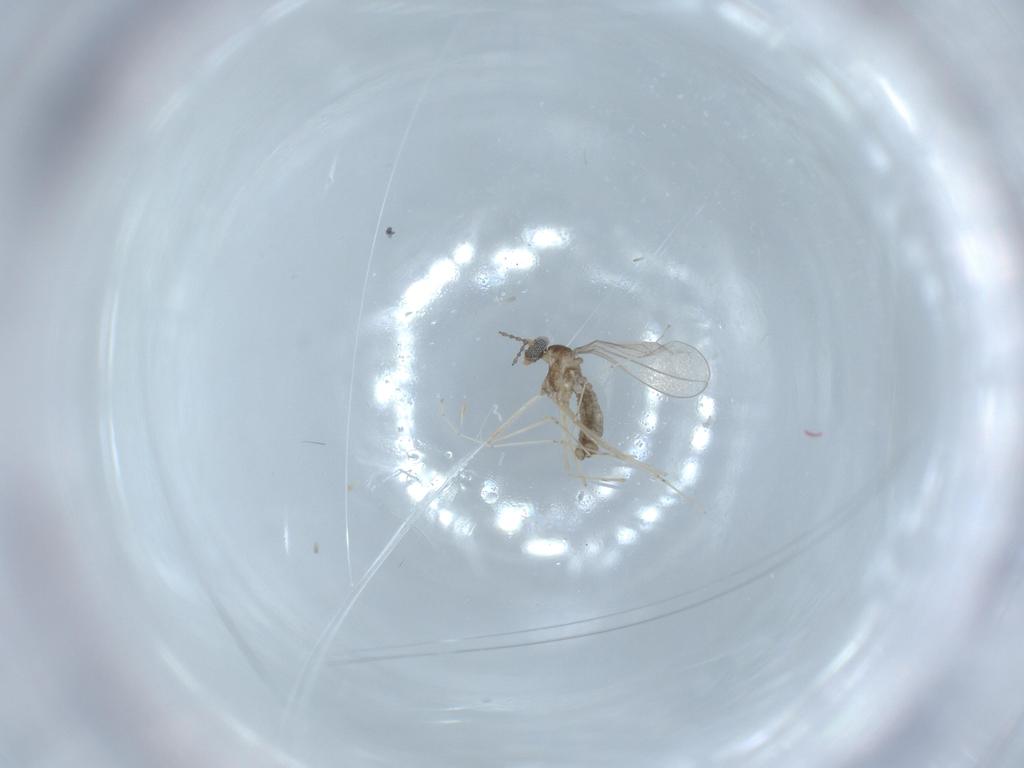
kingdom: Animalia
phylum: Arthropoda
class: Insecta
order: Diptera
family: Cecidomyiidae
